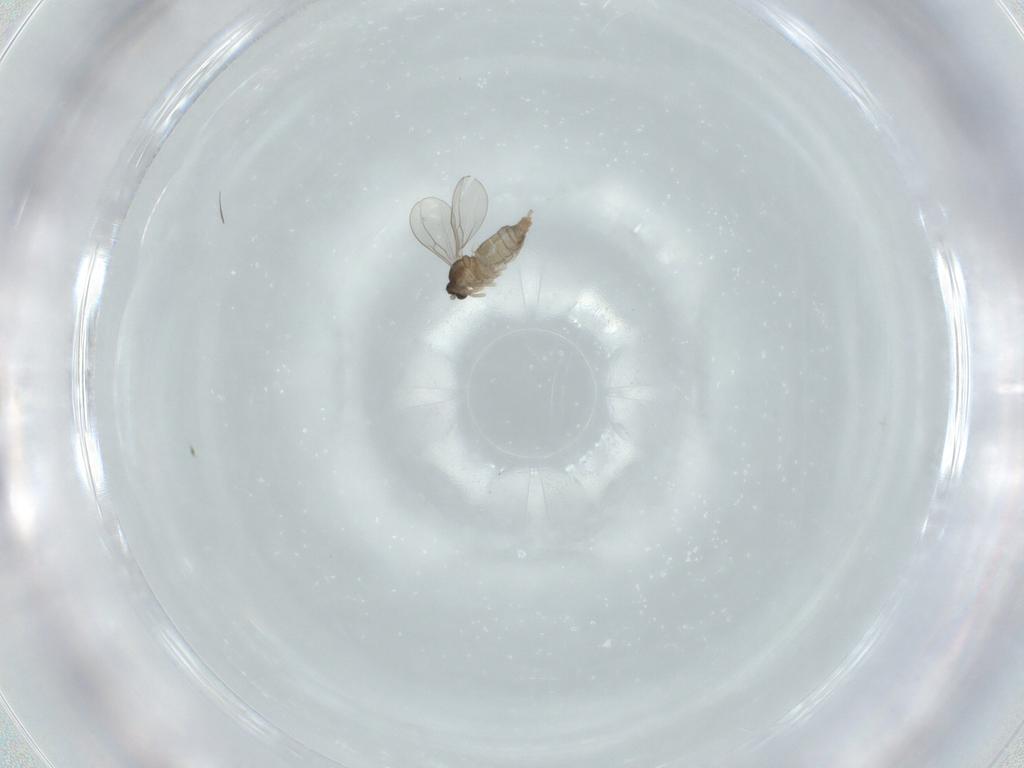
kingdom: Animalia
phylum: Arthropoda
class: Insecta
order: Diptera
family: Cecidomyiidae
